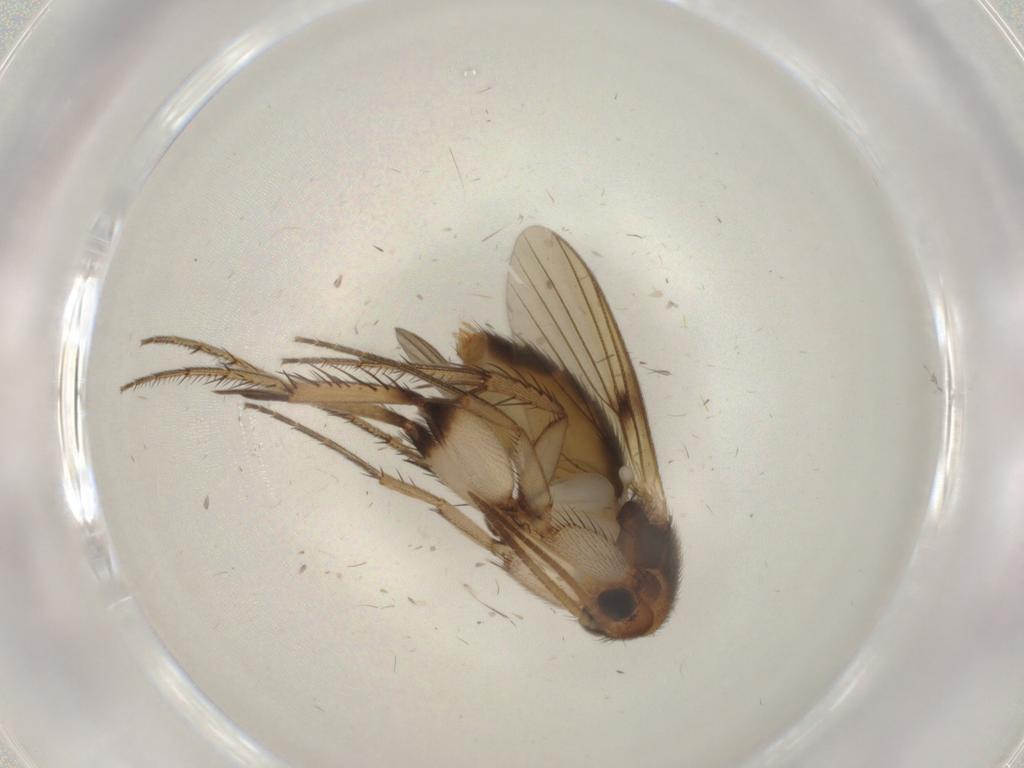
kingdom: Animalia
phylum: Arthropoda
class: Insecta
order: Diptera
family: Mycetophilidae
